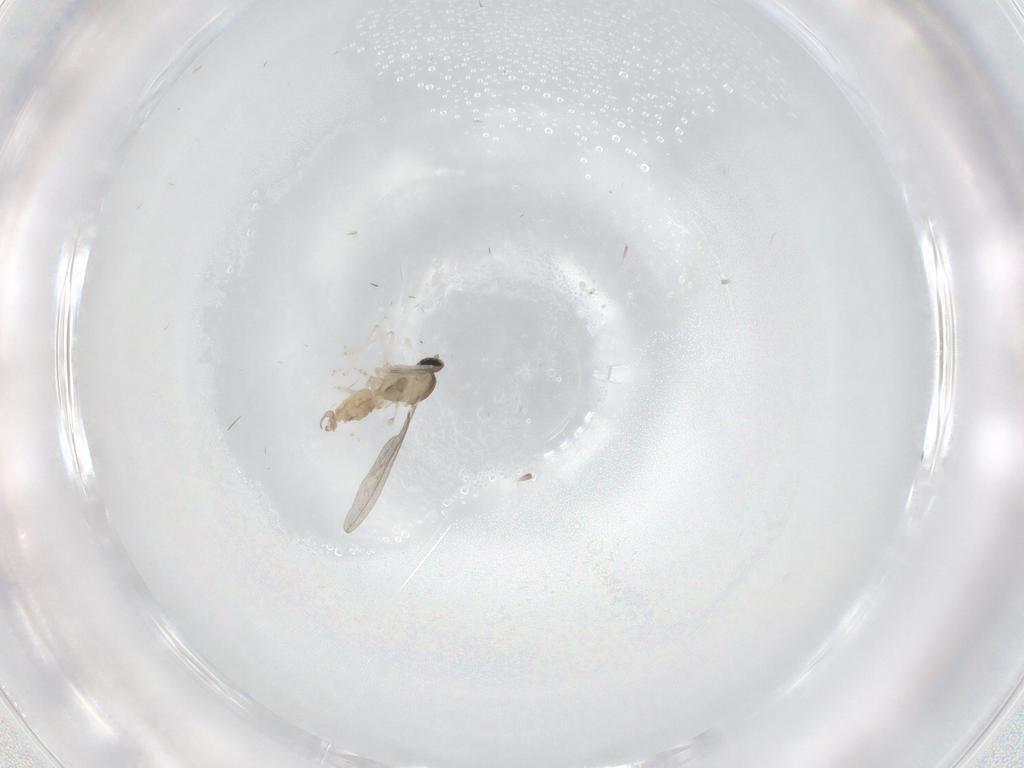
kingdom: Animalia
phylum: Arthropoda
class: Insecta
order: Diptera
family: Cecidomyiidae
